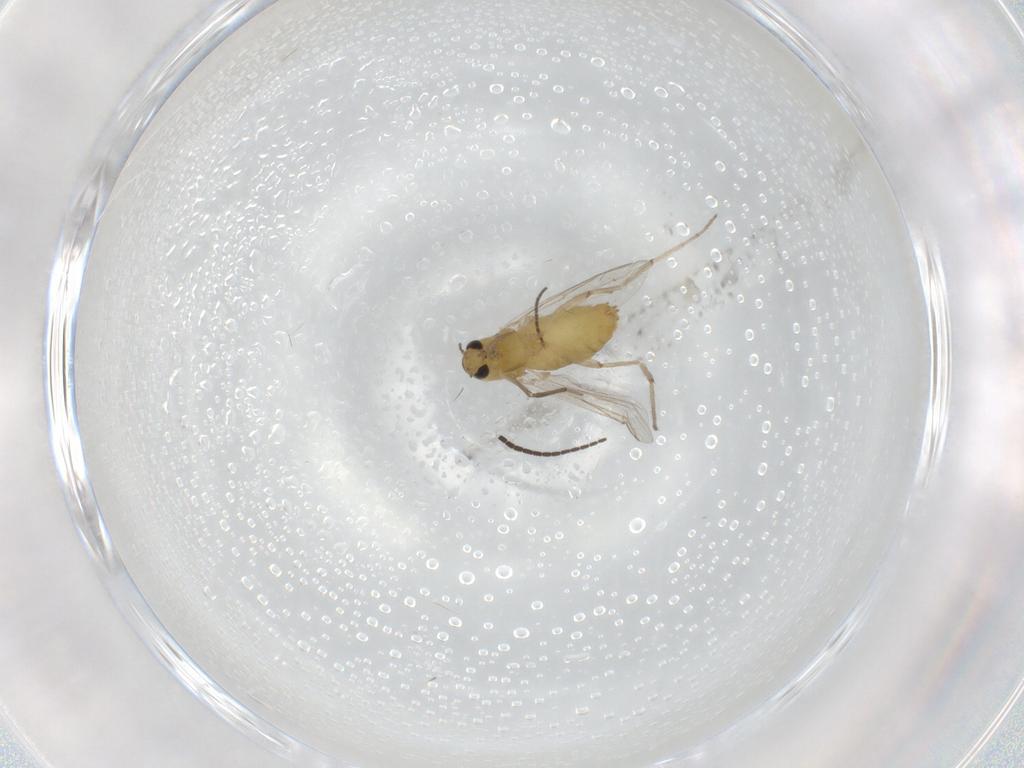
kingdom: Animalia
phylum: Arthropoda
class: Insecta
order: Diptera
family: Chironomidae
